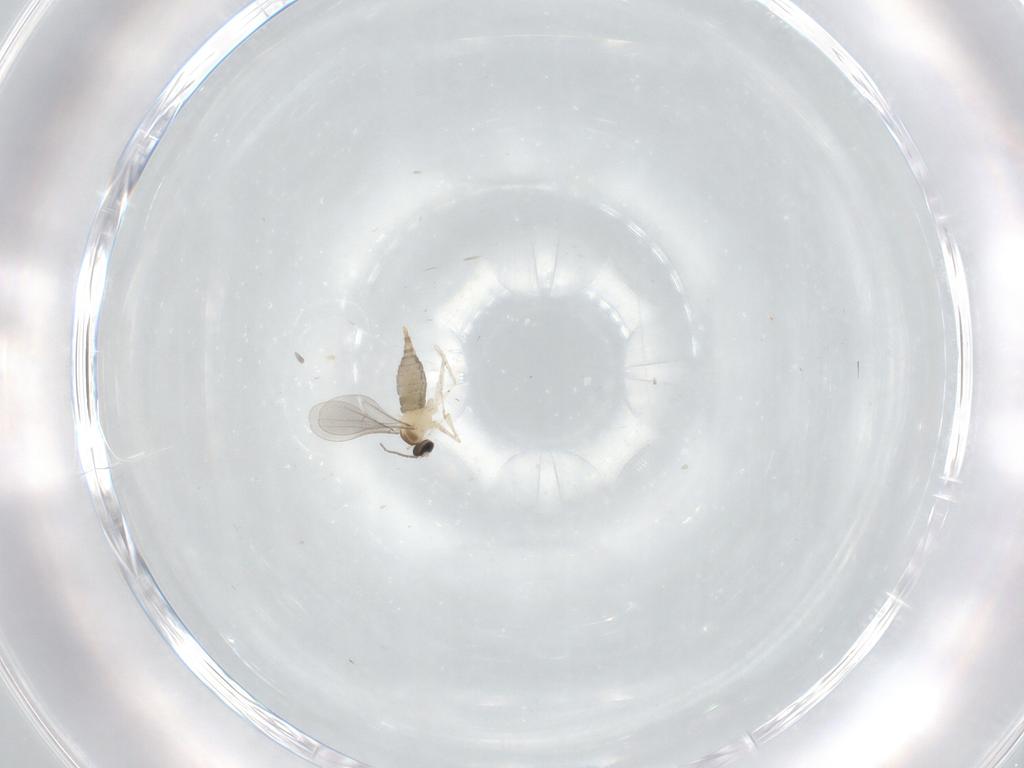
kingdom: Animalia
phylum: Arthropoda
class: Insecta
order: Diptera
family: Cecidomyiidae
